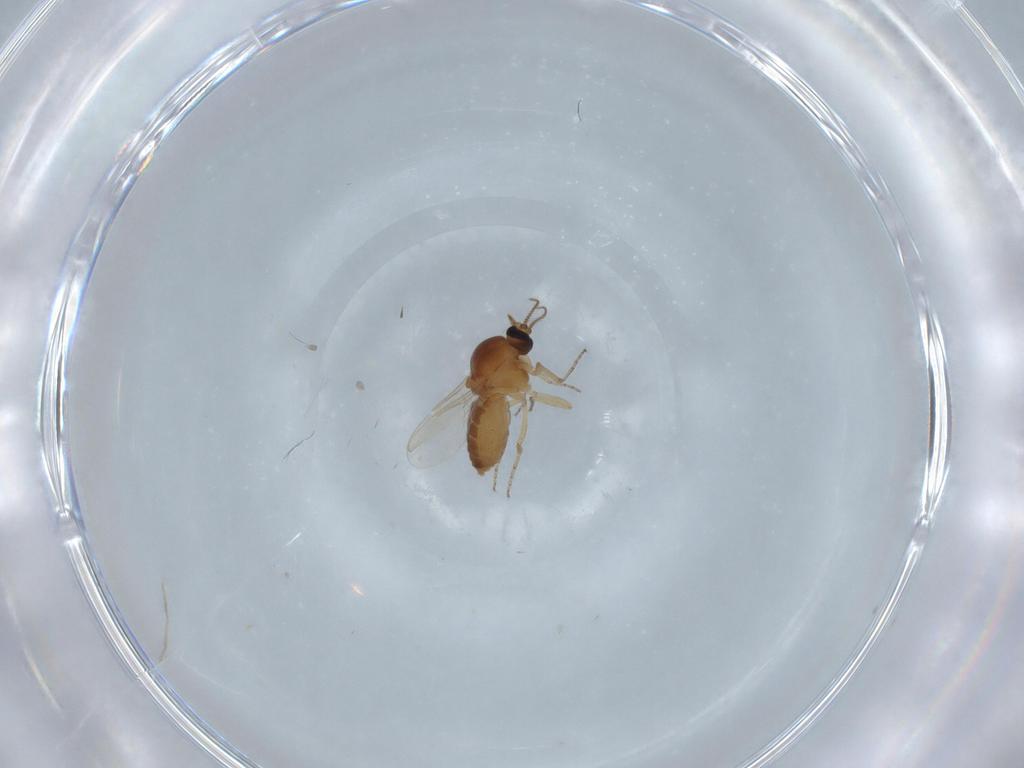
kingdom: Animalia
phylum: Arthropoda
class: Insecta
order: Diptera
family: Ceratopogonidae
